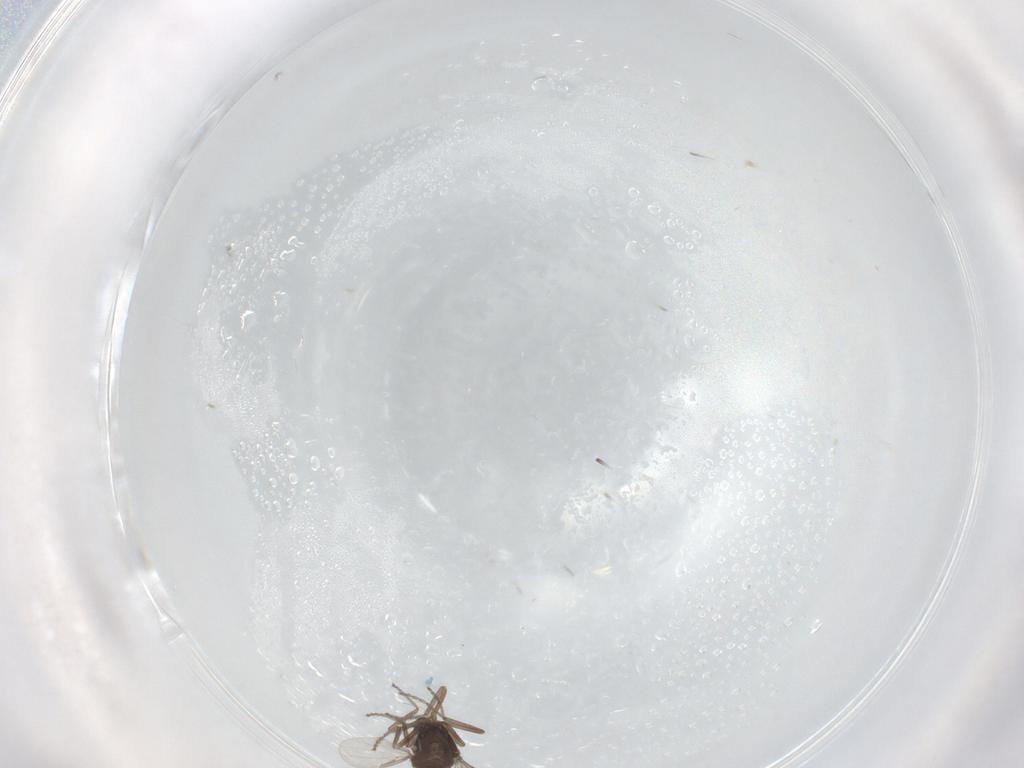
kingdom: Animalia
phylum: Arthropoda
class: Insecta
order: Diptera
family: Ceratopogonidae
